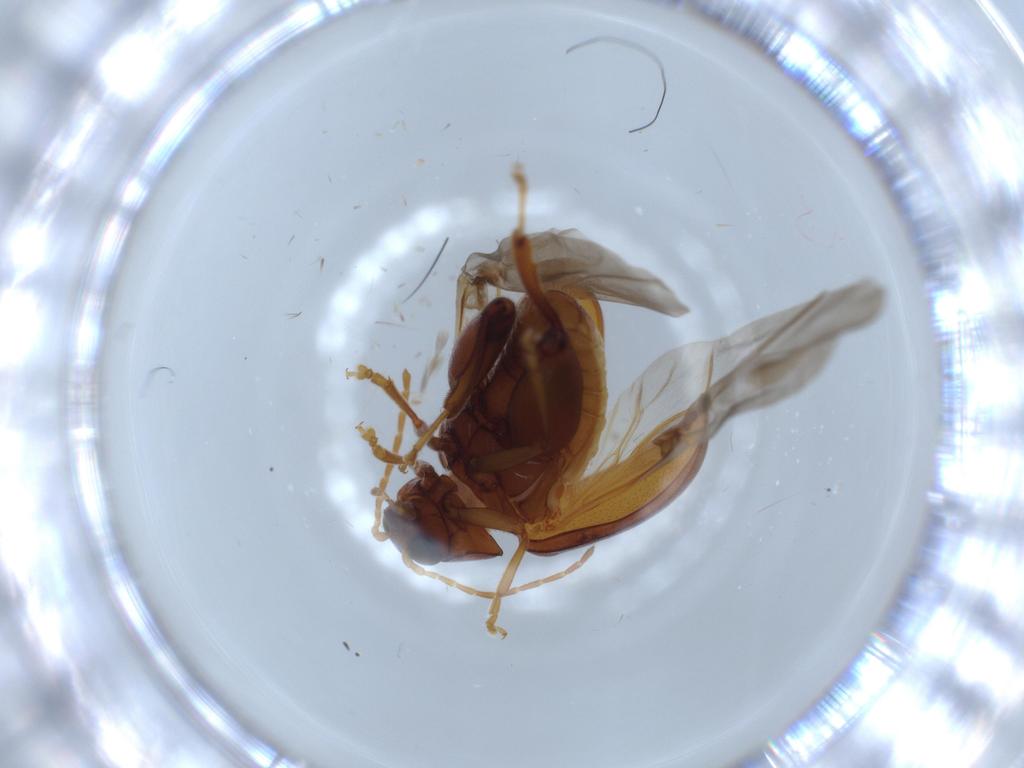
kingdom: Animalia
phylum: Arthropoda
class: Insecta
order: Coleoptera
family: Chrysomelidae
